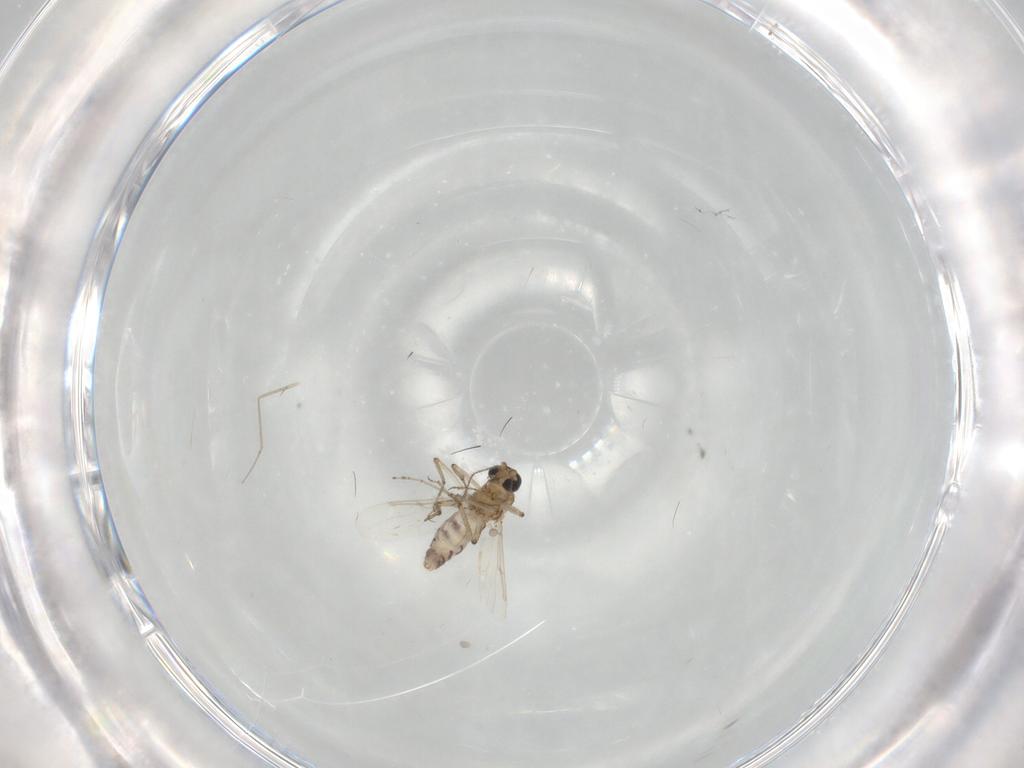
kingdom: Animalia
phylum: Arthropoda
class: Insecta
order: Diptera
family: Ceratopogonidae
